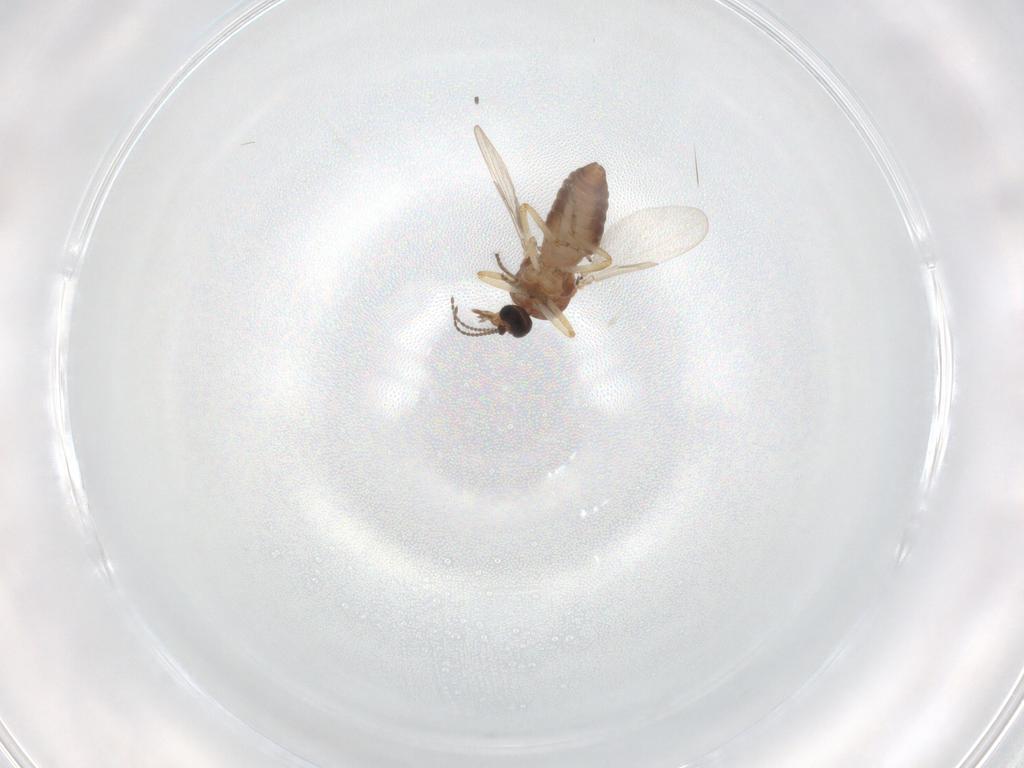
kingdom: Animalia
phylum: Arthropoda
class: Insecta
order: Diptera
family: Ceratopogonidae
